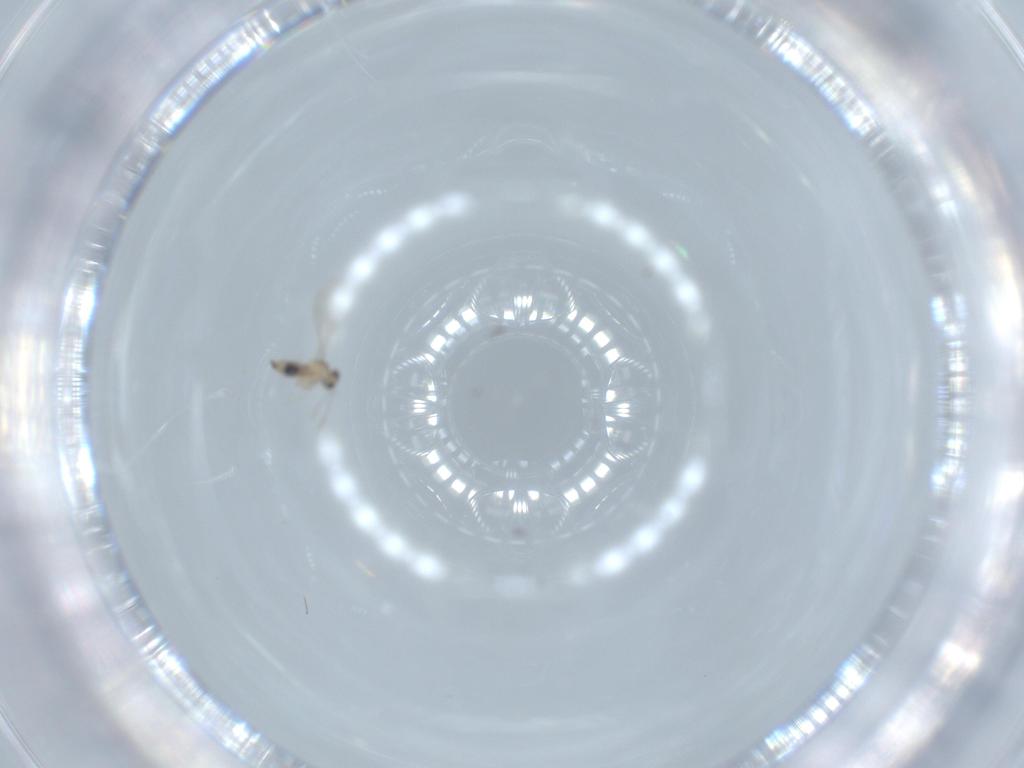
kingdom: Animalia
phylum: Arthropoda
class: Insecta
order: Diptera
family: Cecidomyiidae
